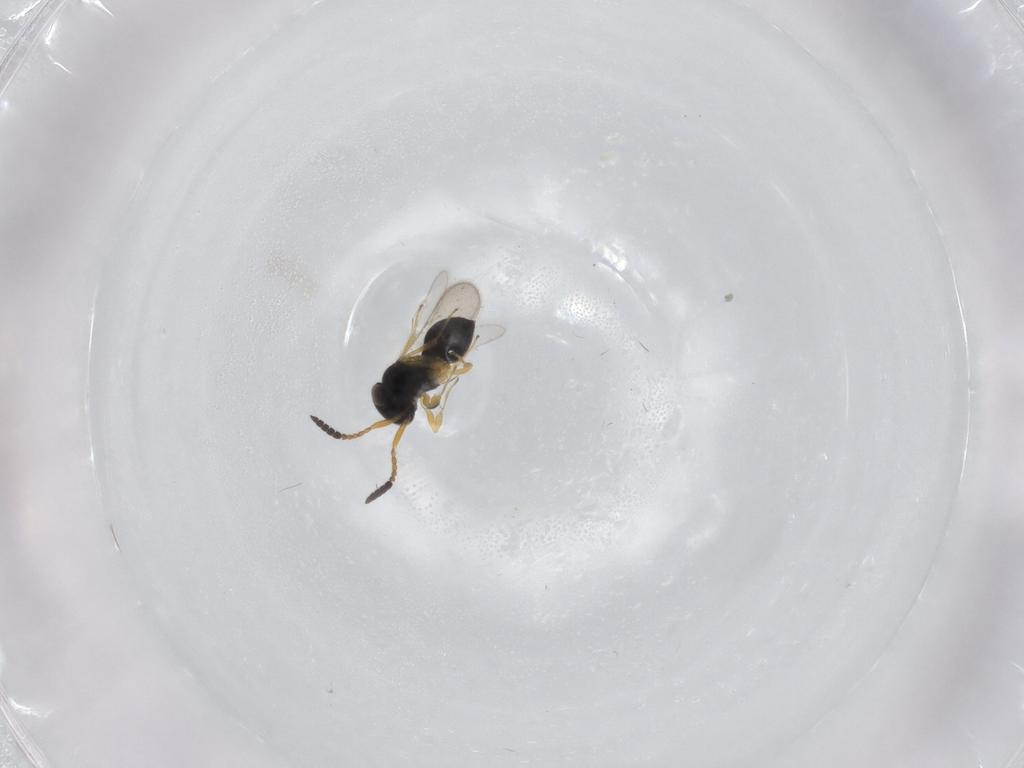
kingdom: Animalia
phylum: Arthropoda
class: Insecta
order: Hymenoptera
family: Scelionidae
